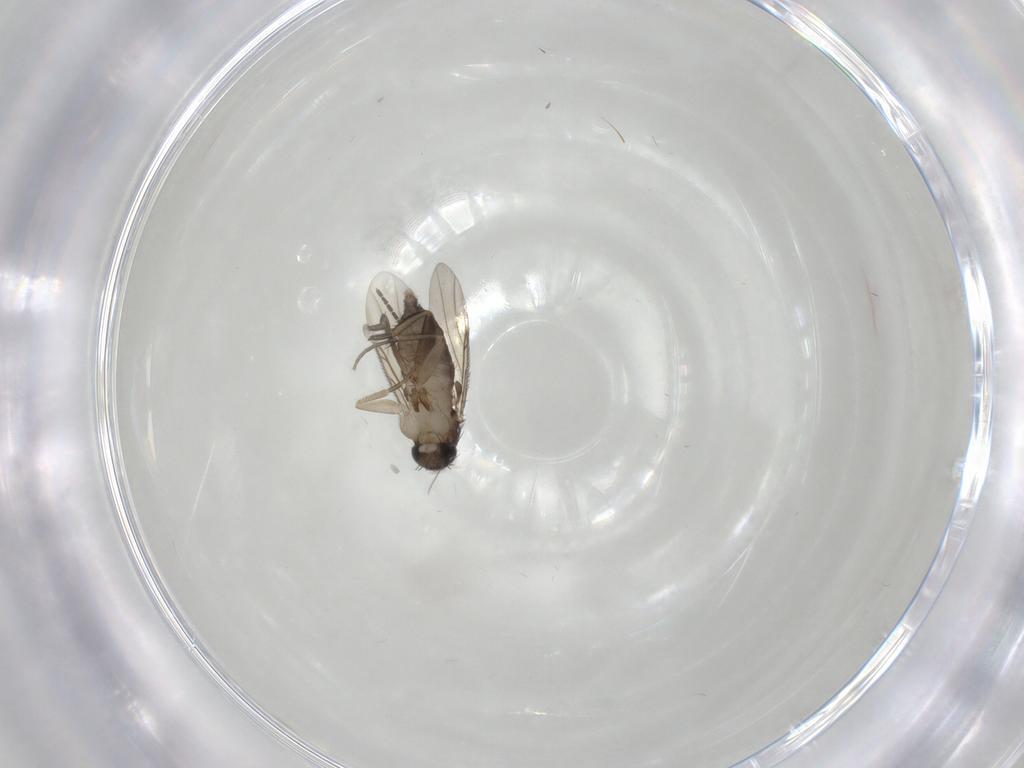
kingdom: Animalia
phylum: Arthropoda
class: Insecta
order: Diptera
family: Phoridae
